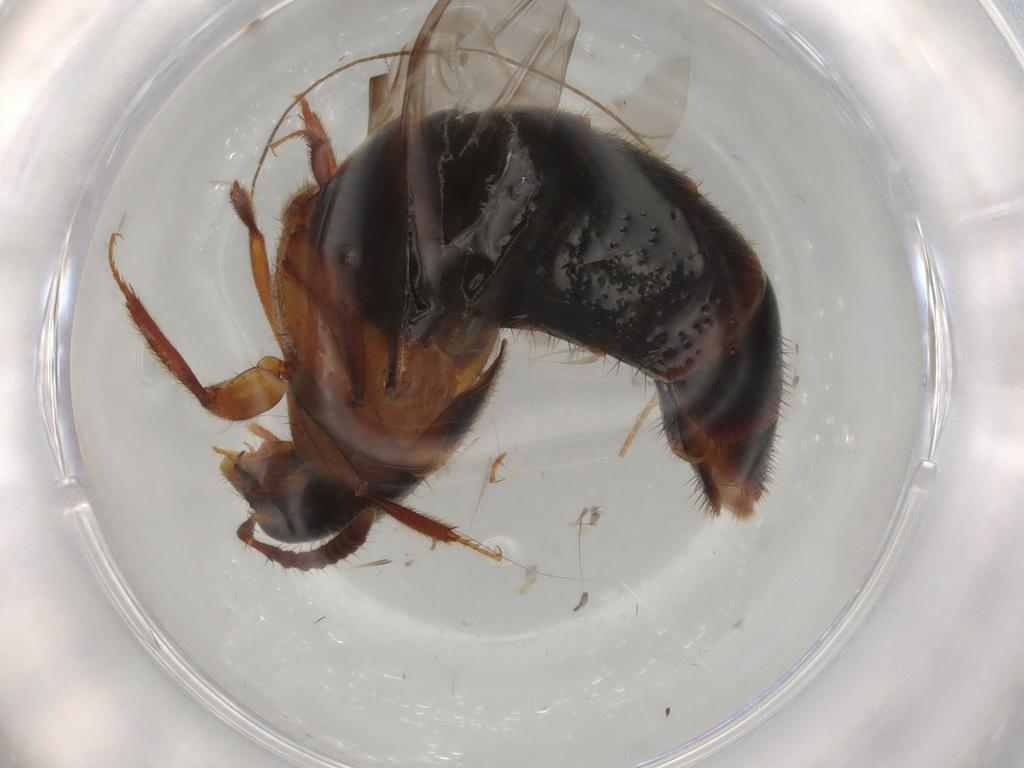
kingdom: Animalia
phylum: Arthropoda
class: Insecta
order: Coleoptera
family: Staphylinidae
